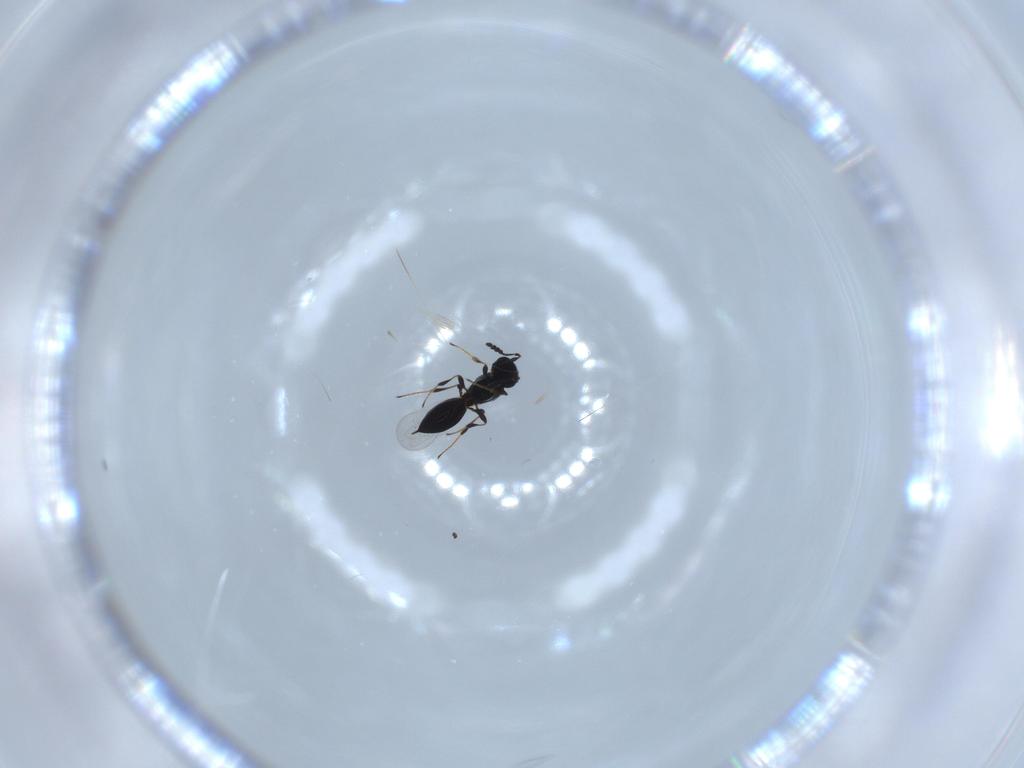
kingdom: Animalia
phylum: Arthropoda
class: Insecta
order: Hymenoptera
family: Platygastridae
